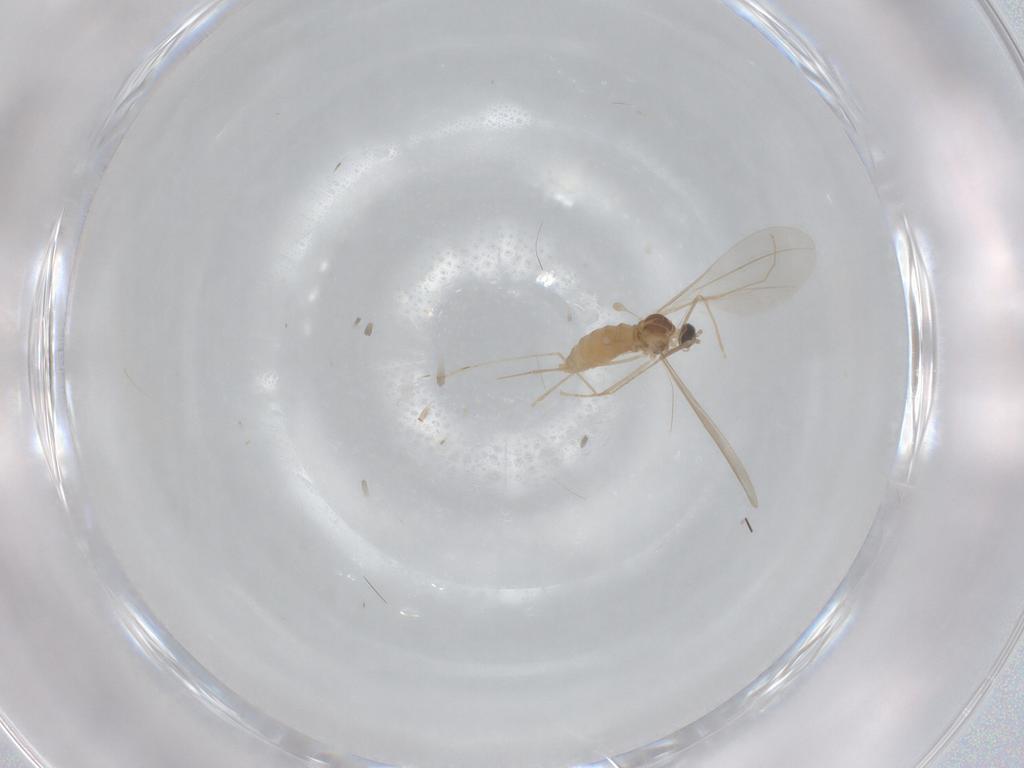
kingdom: Animalia
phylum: Arthropoda
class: Insecta
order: Diptera
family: Cecidomyiidae
